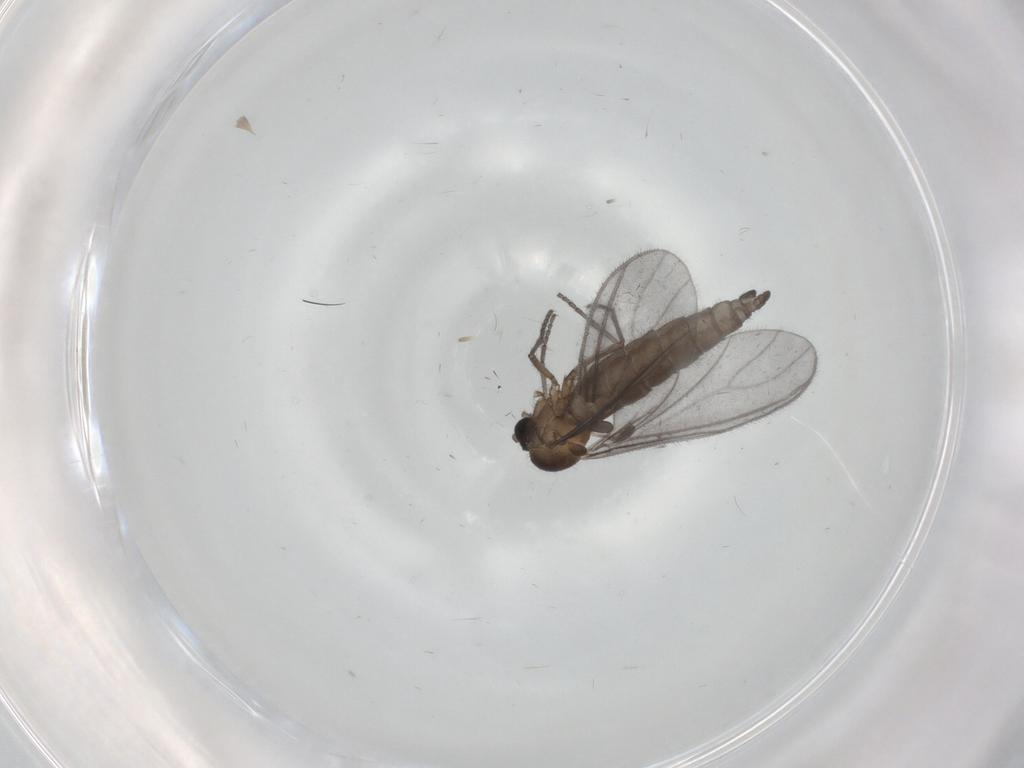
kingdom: Animalia
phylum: Arthropoda
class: Insecta
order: Diptera
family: Sciaridae
